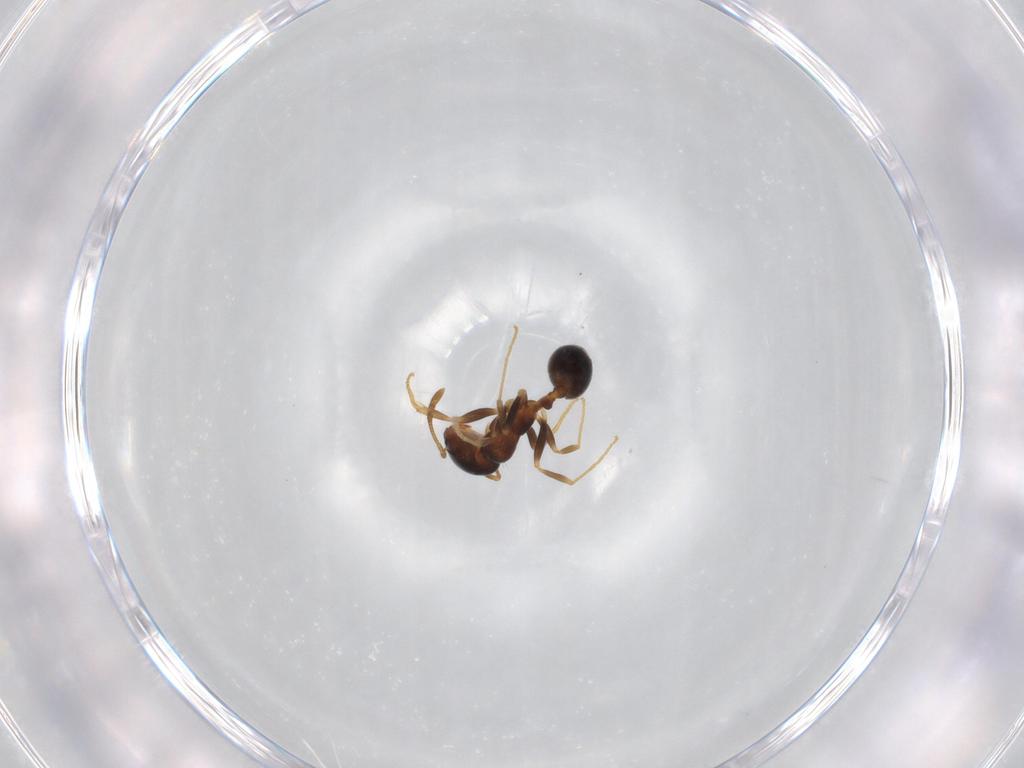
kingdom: Animalia
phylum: Arthropoda
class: Insecta
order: Hymenoptera
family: Formicidae
